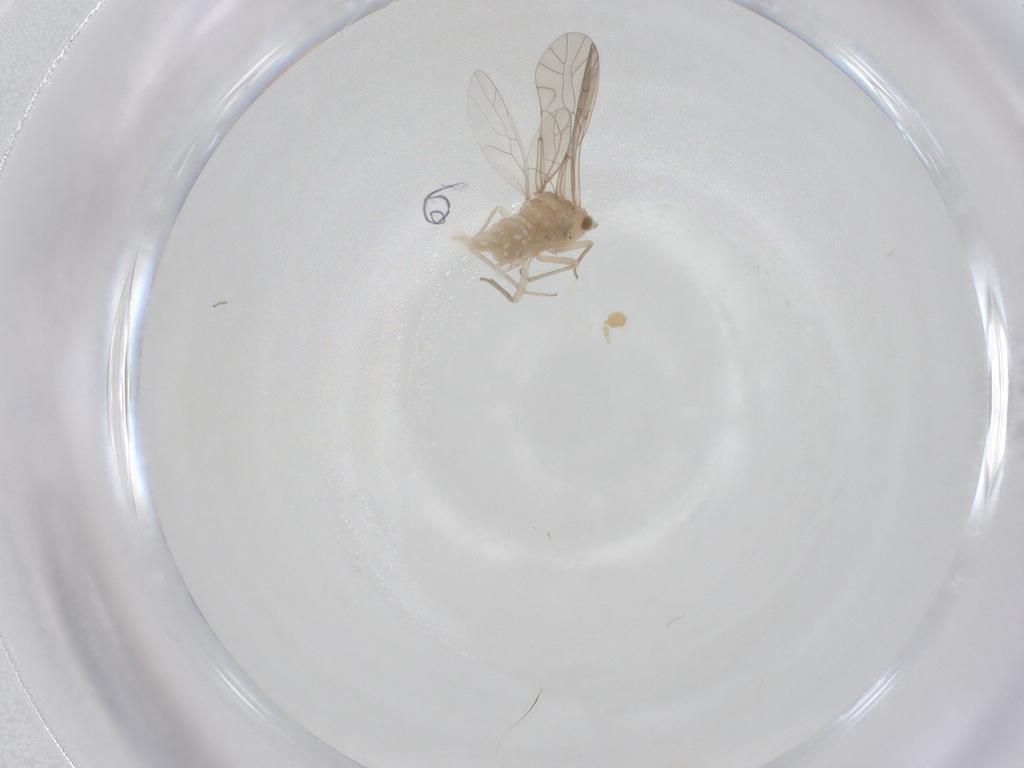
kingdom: Animalia
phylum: Arthropoda
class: Insecta
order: Psocodea
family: Lachesillidae
